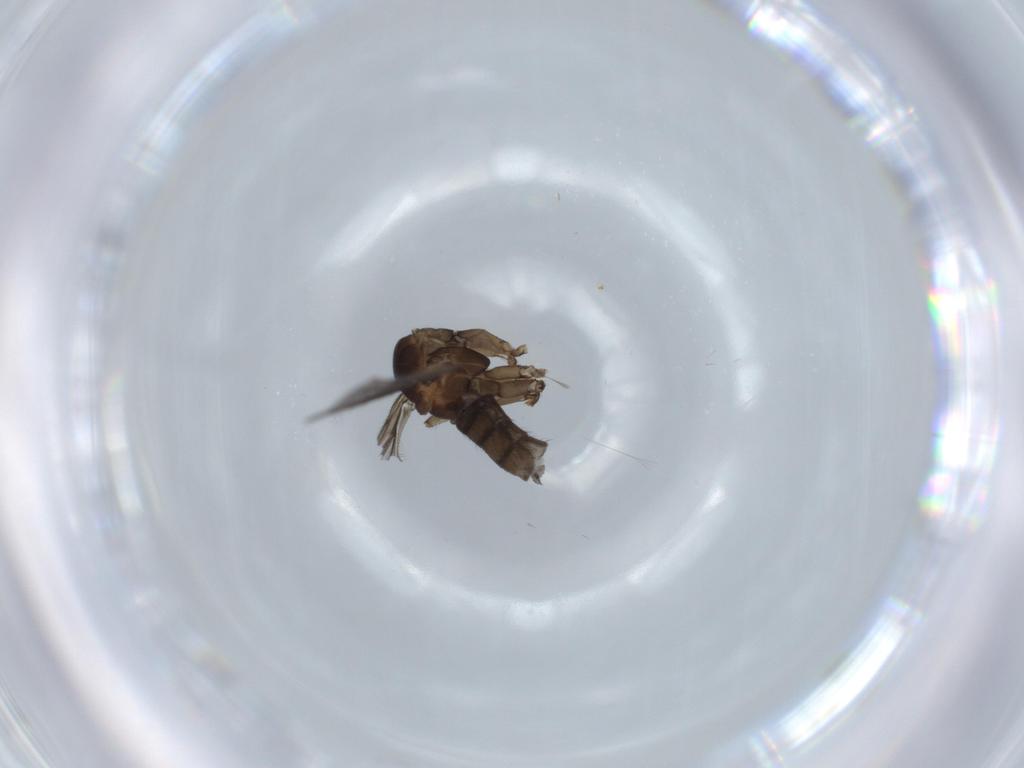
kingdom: Animalia
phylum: Arthropoda
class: Insecta
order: Diptera
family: Sciaridae
